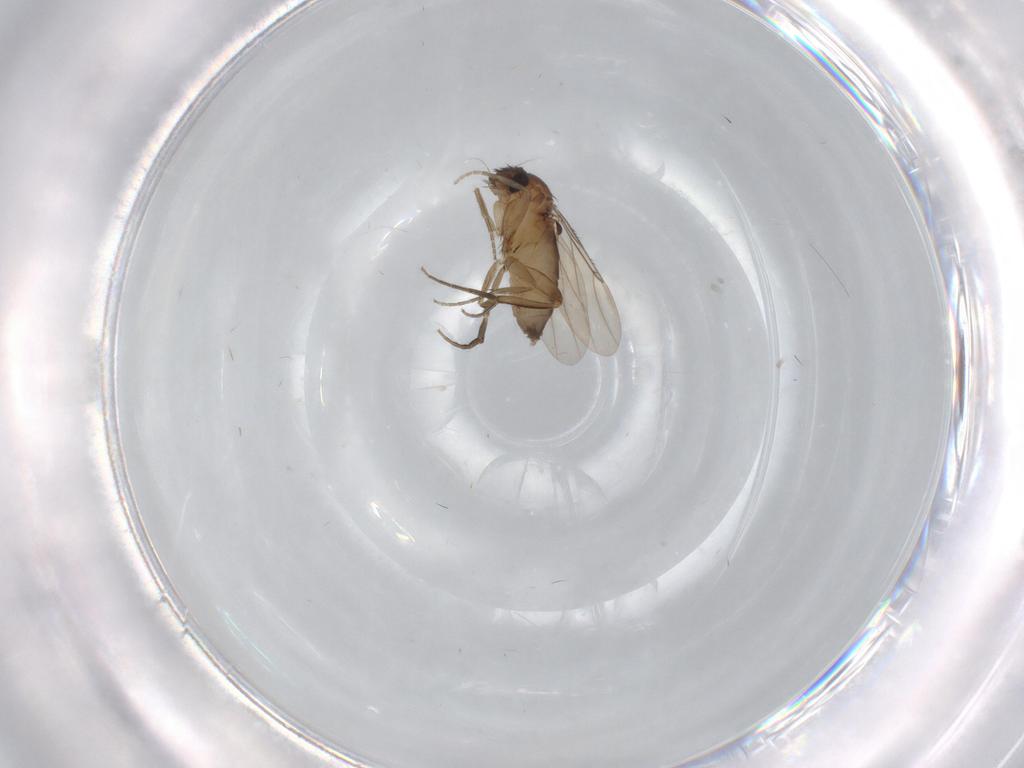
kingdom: Animalia
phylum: Arthropoda
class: Insecta
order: Diptera
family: Phoridae
